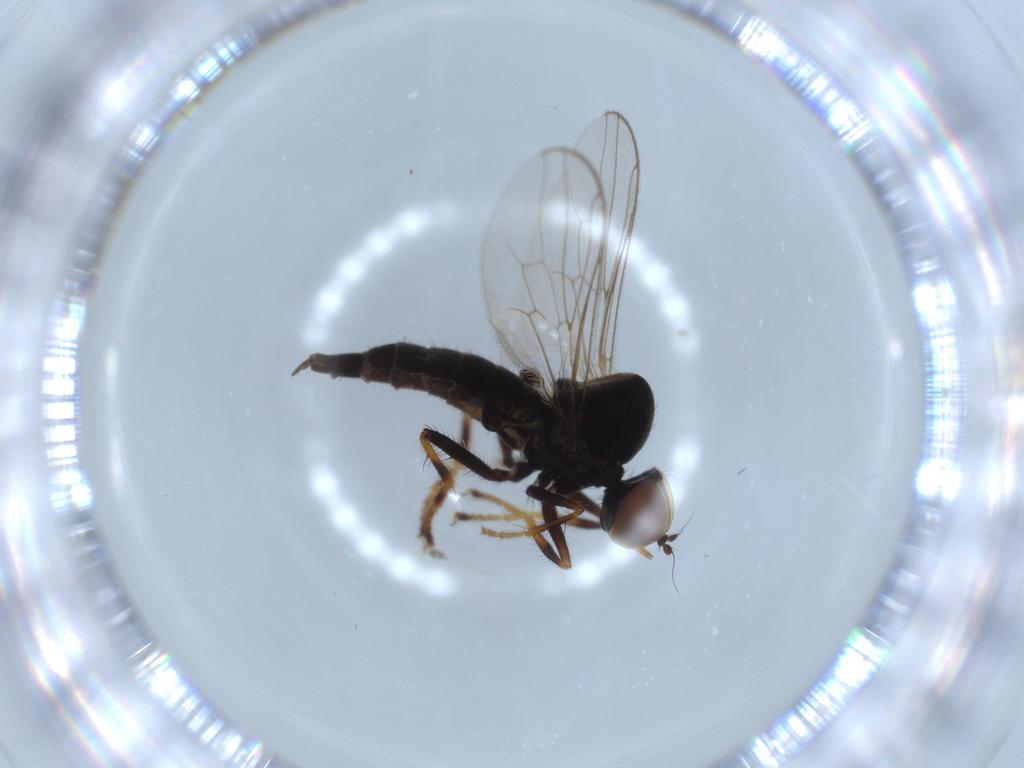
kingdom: Animalia
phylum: Arthropoda
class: Insecta
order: Diptera
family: Hybotidae
